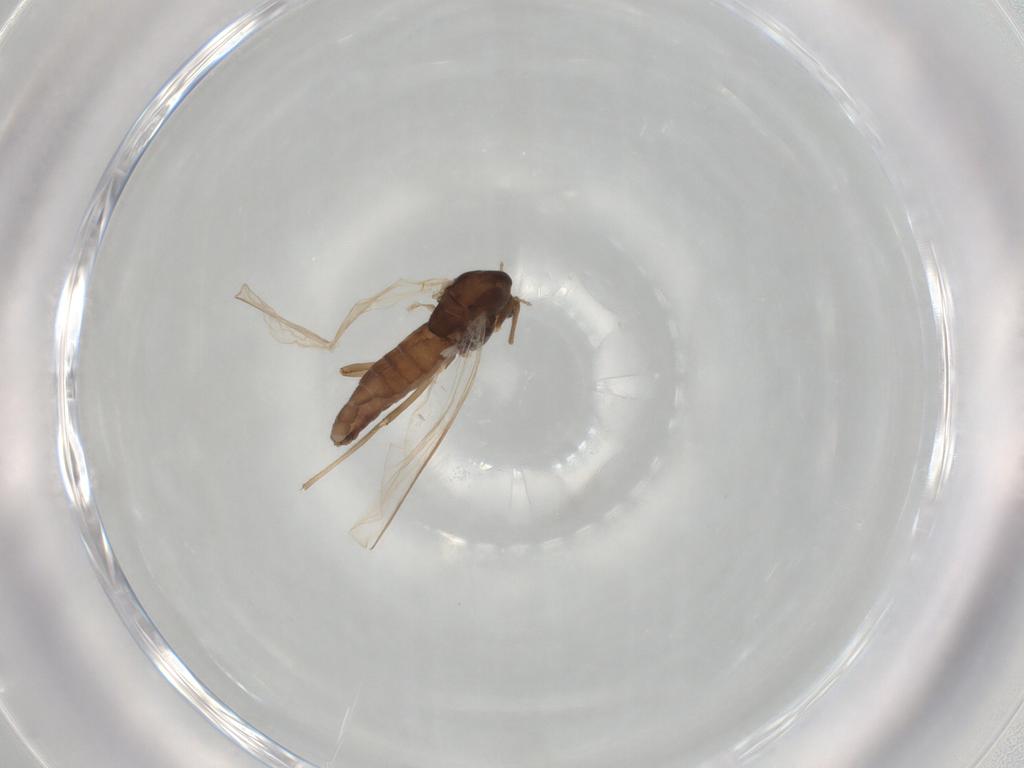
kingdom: Animalia
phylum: Arthropoda
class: Insecta
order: Diptera
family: Chironomidae
